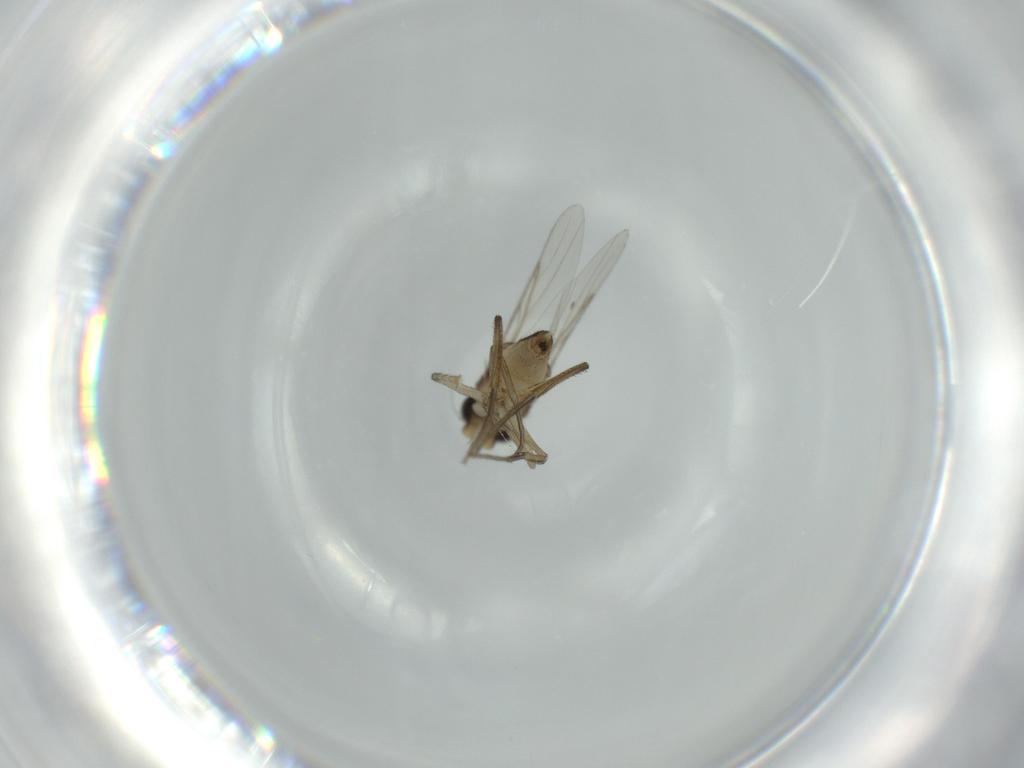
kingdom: Animalia
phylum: Arthropoda
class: Insecta
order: Diptera
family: Phoridae
